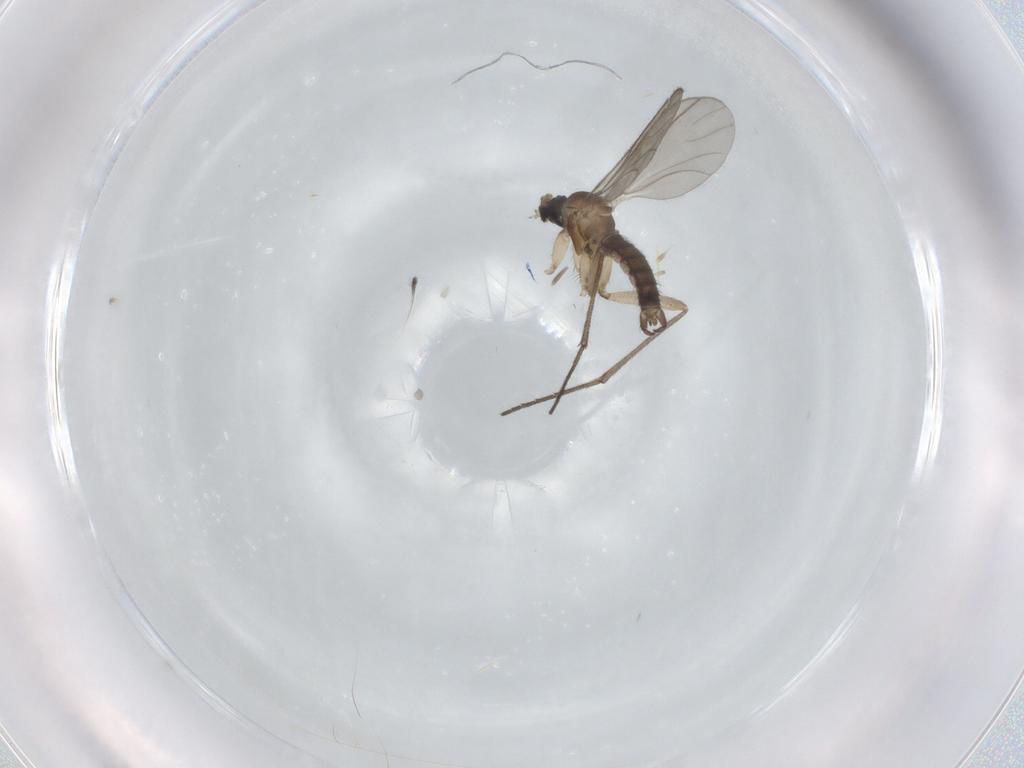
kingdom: Animalia
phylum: Arthropoda
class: Insecta
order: Diptera
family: Sciaridae
